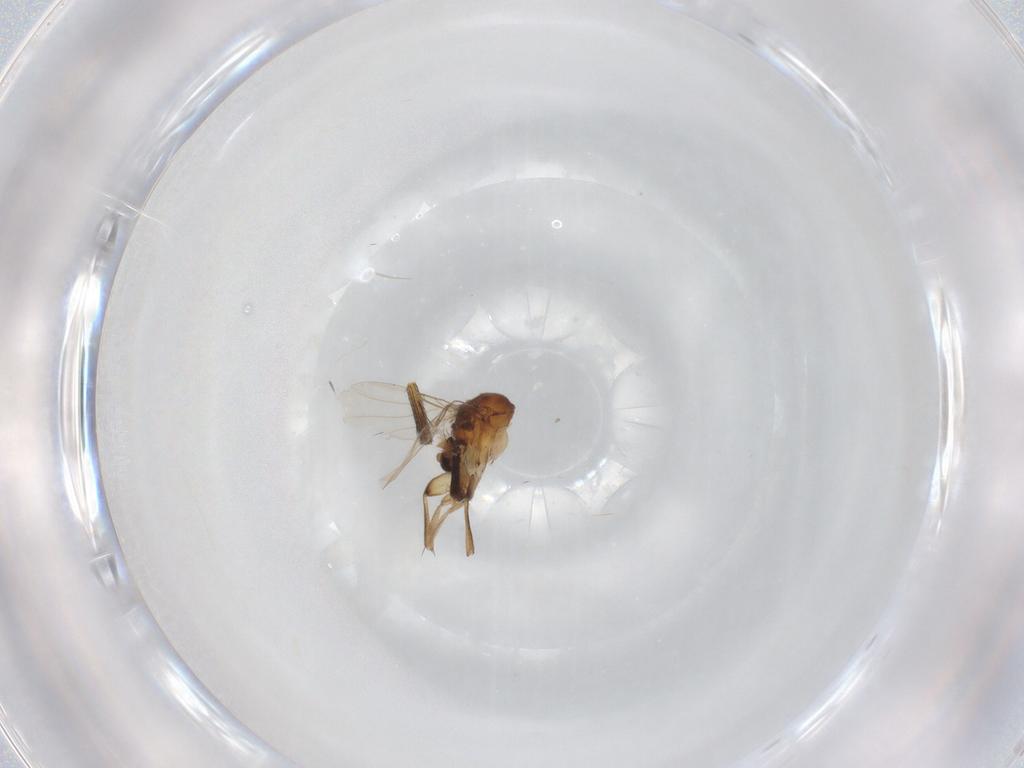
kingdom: Animalia
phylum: Arthropoda
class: Insecta
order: Diptera
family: Muscidae
